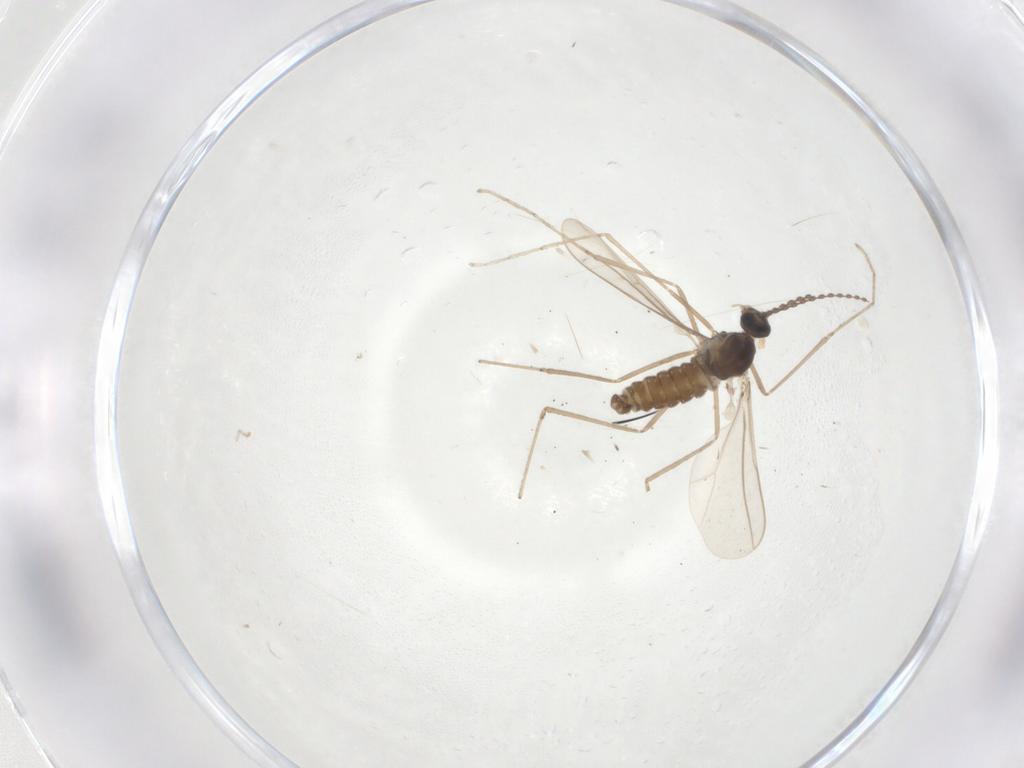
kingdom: Animalia
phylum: Arthropoda
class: Insecta
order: Diptera
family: Cecidomyiidae
